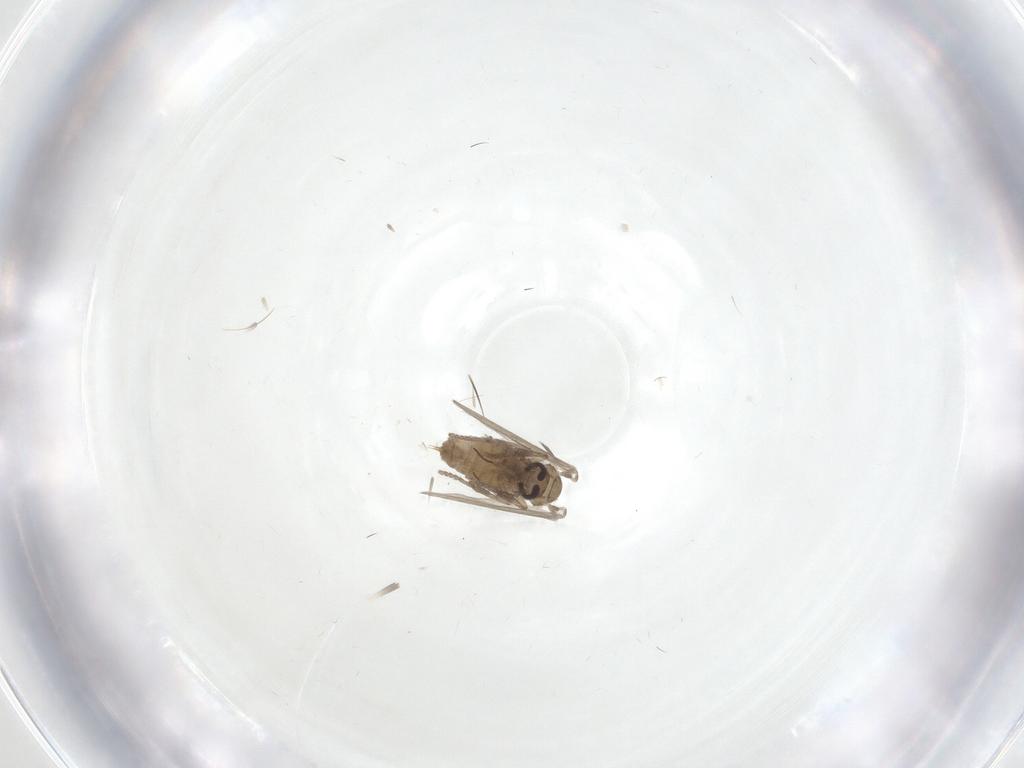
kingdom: Animalia
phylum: Arthropoda
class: Insecta
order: Diptera
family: Psychodidae
